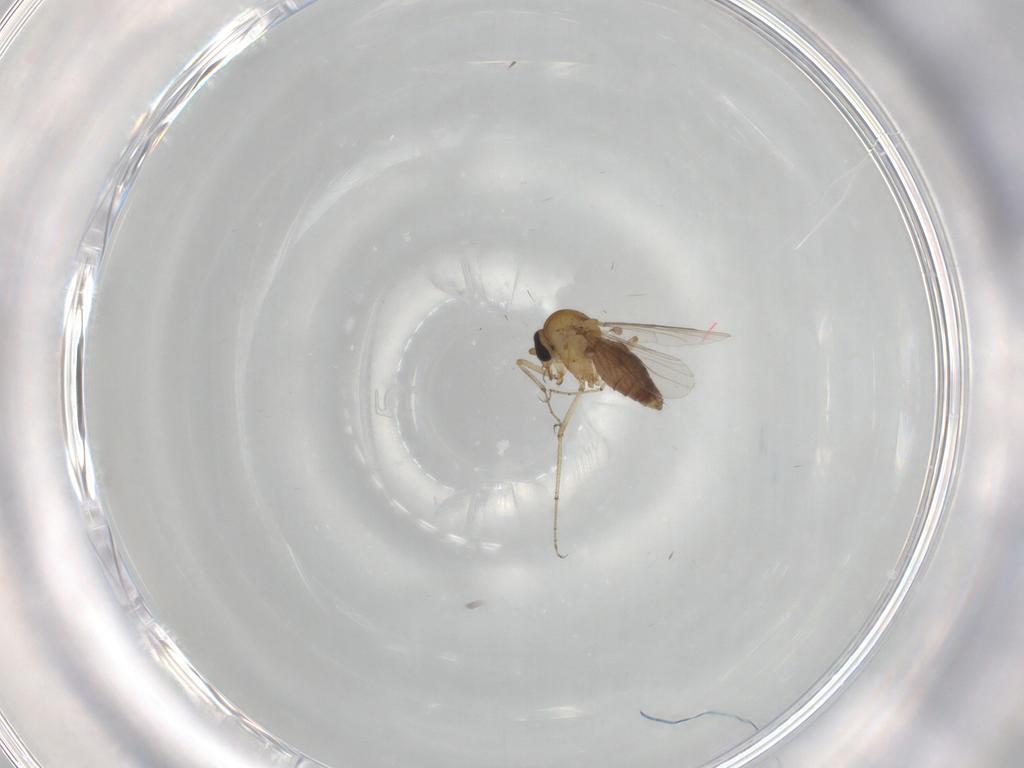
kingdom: Animalia
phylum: Arthropoda
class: Insecta
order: Diptera
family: Ceratopogonidae
